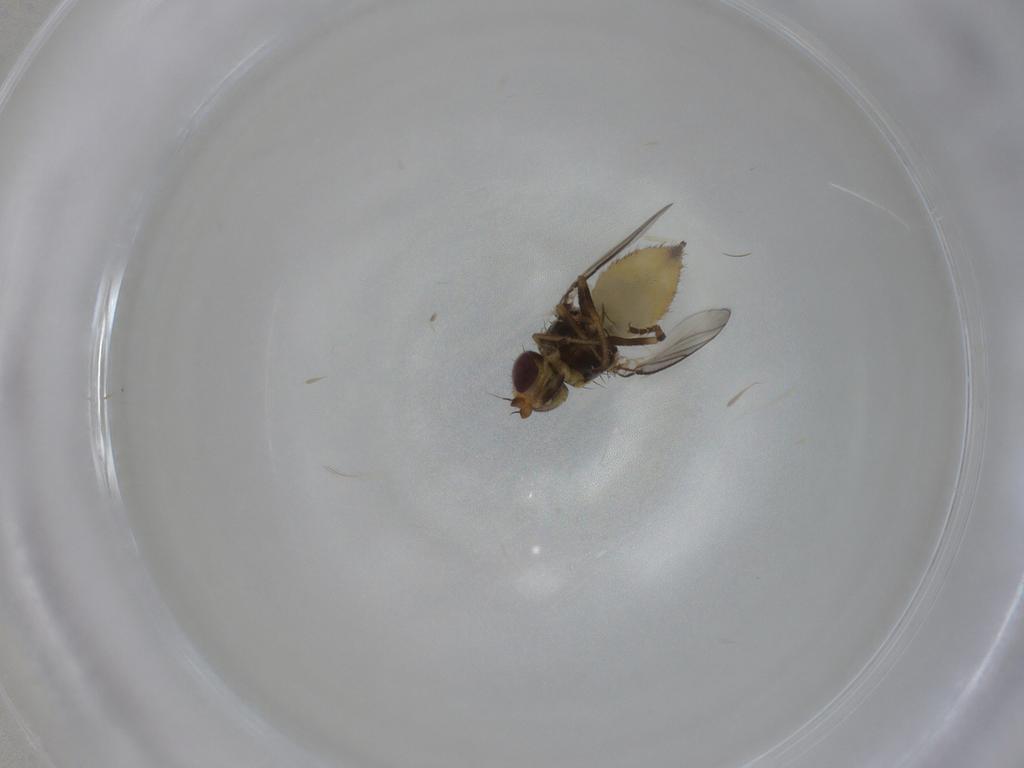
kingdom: Animalia
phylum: Arthropoda
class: Insecta
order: Diptera
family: Chloropidae
